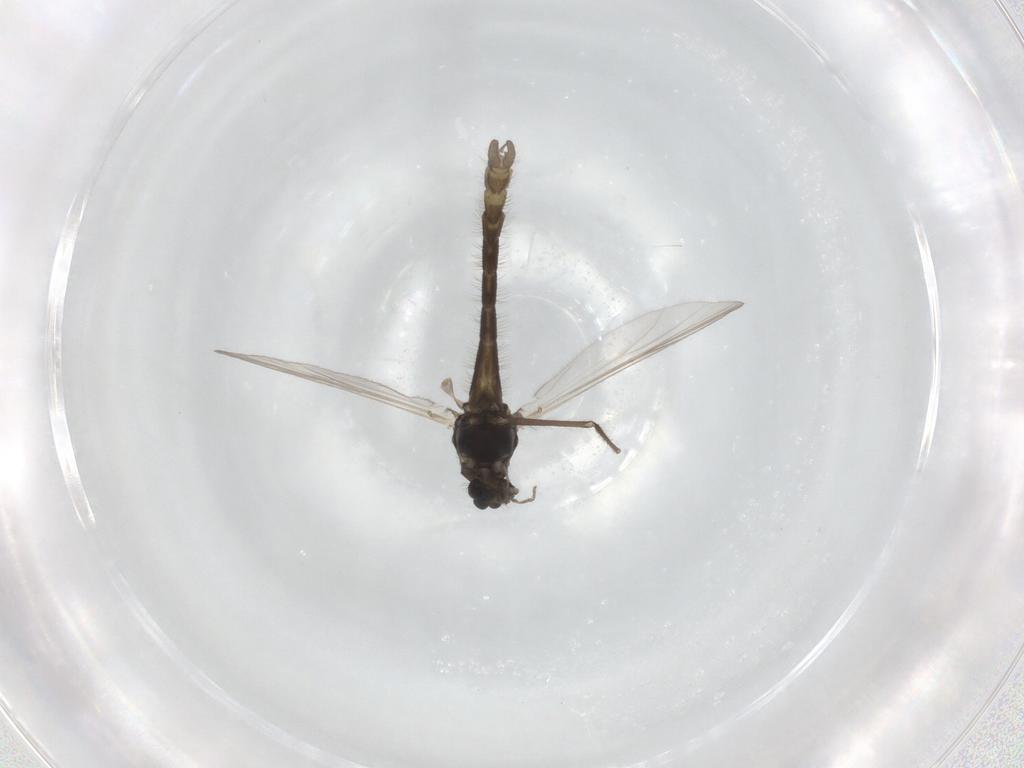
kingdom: Animalia
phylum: Arthropoda
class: Insecta
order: Diptera
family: Chironomidae
